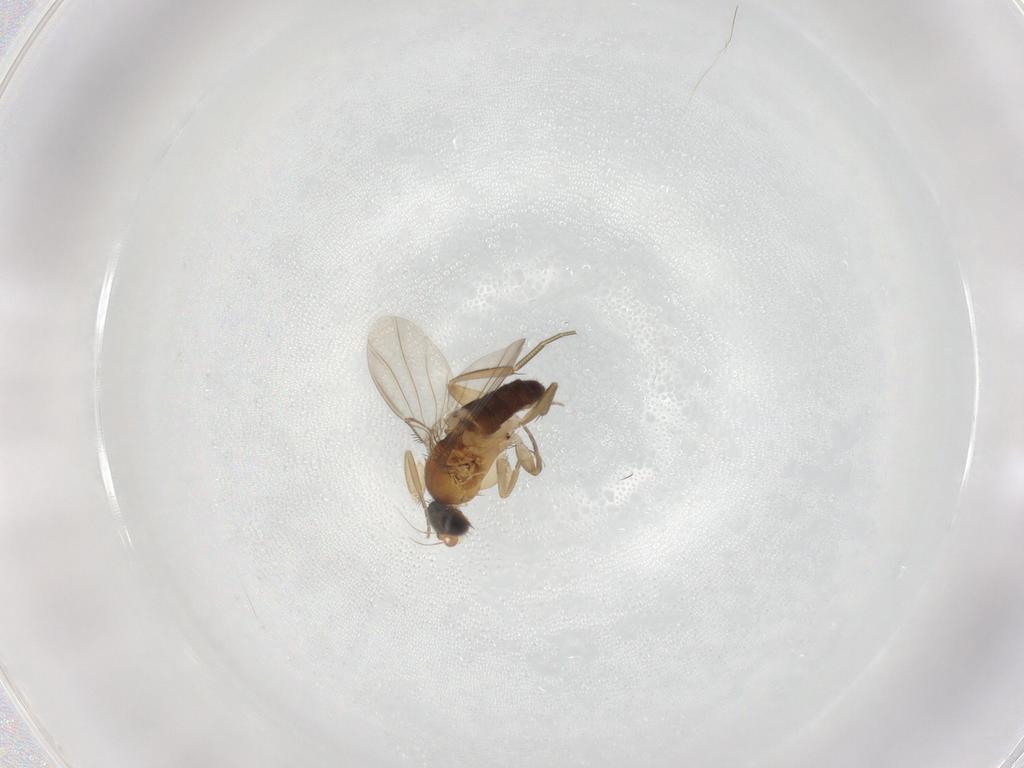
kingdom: Animalia
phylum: Arthropoda
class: Insecta
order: Diptera
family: Phoridae
